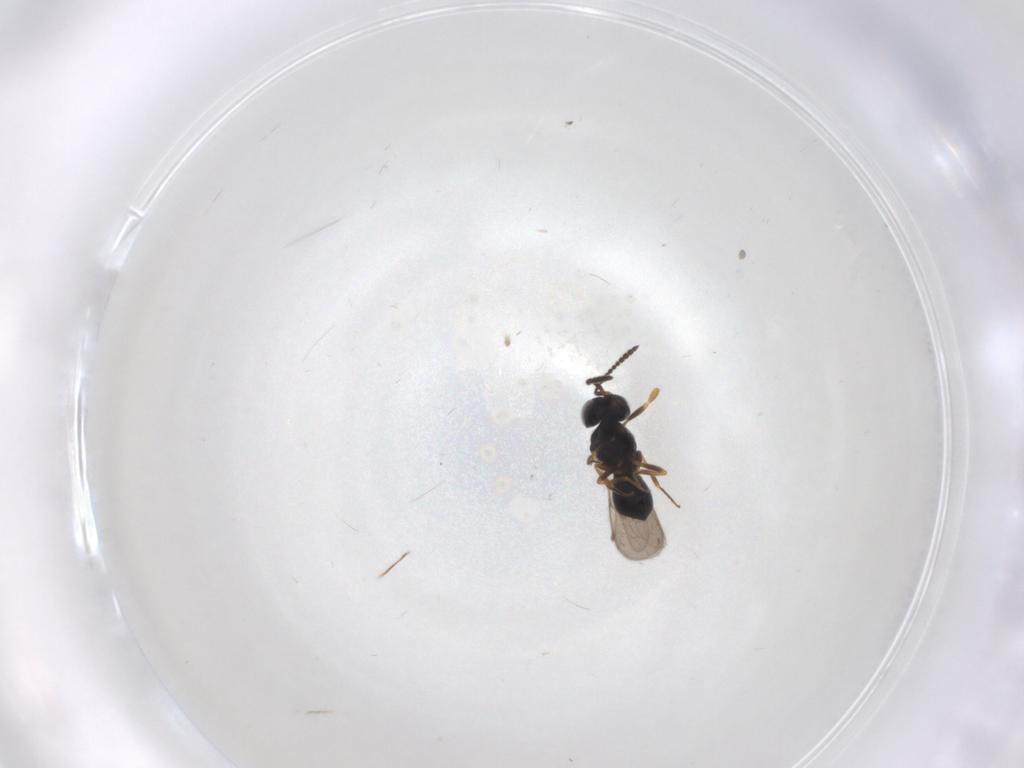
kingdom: Animalia
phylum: Arthropoda
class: Insecta
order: Hymenoptera
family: Scelionidae
